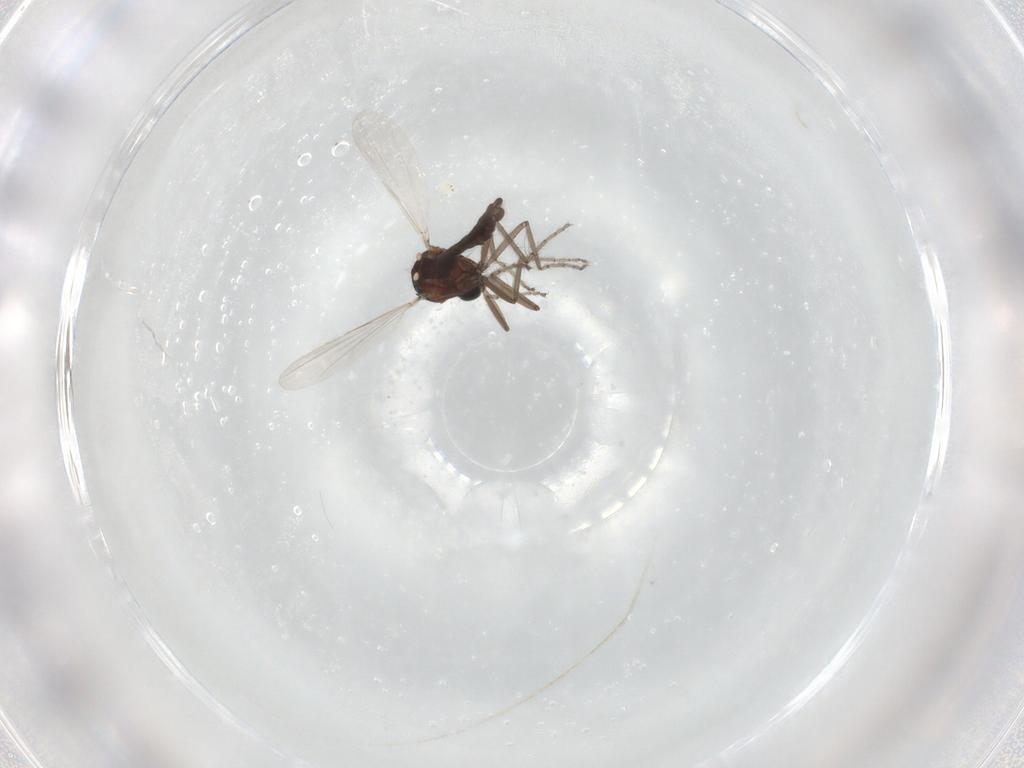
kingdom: Animalia
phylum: Arthropoda
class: Insecta
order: Diptera
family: Ceratopogonidae
